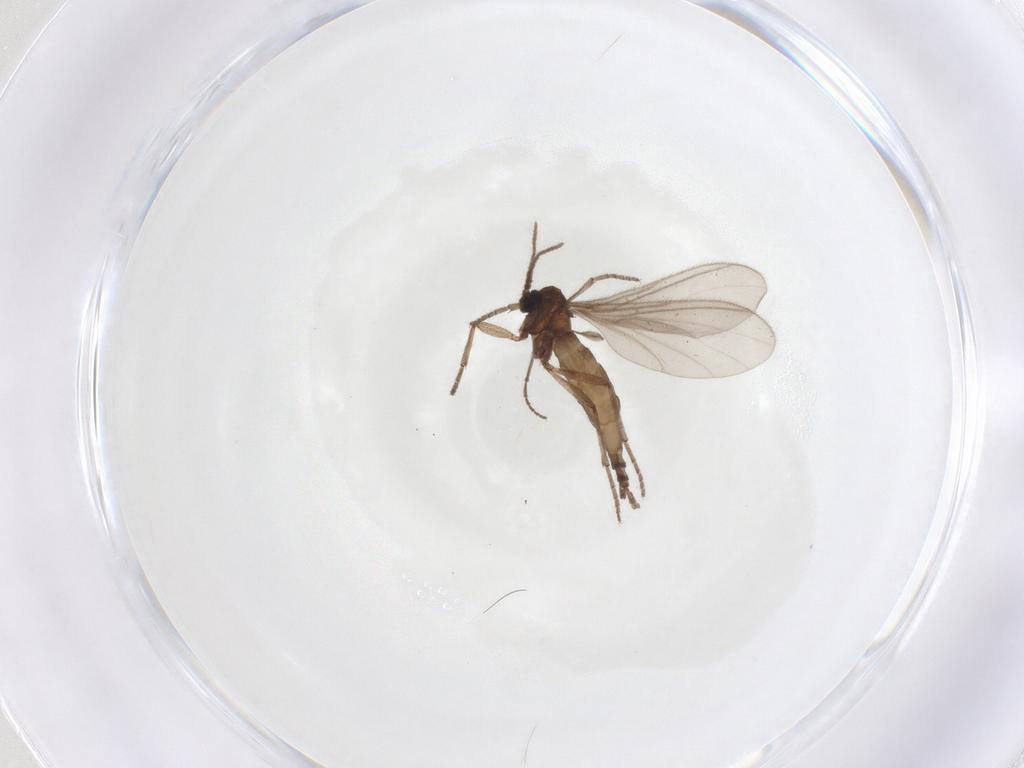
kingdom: Animalia
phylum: Arthropoda
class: Insecta
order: Diptera
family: Sciaridae
